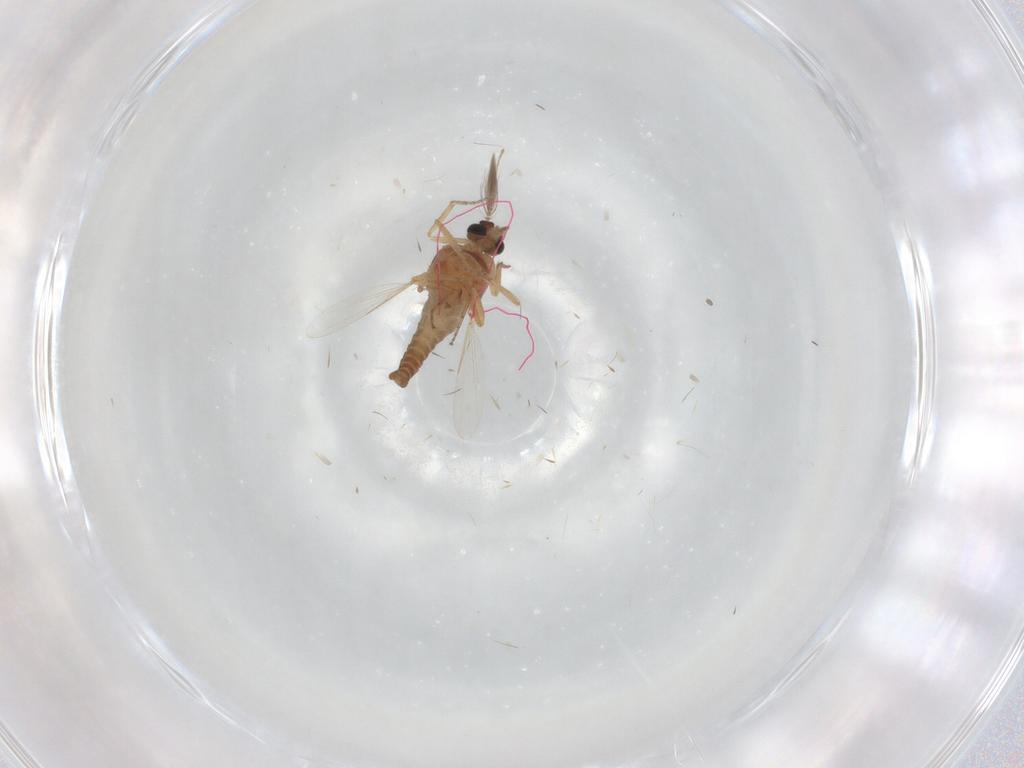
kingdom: Animalia
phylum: Arthropoda
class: Insecta
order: Diptera
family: Ceratopogonidae
